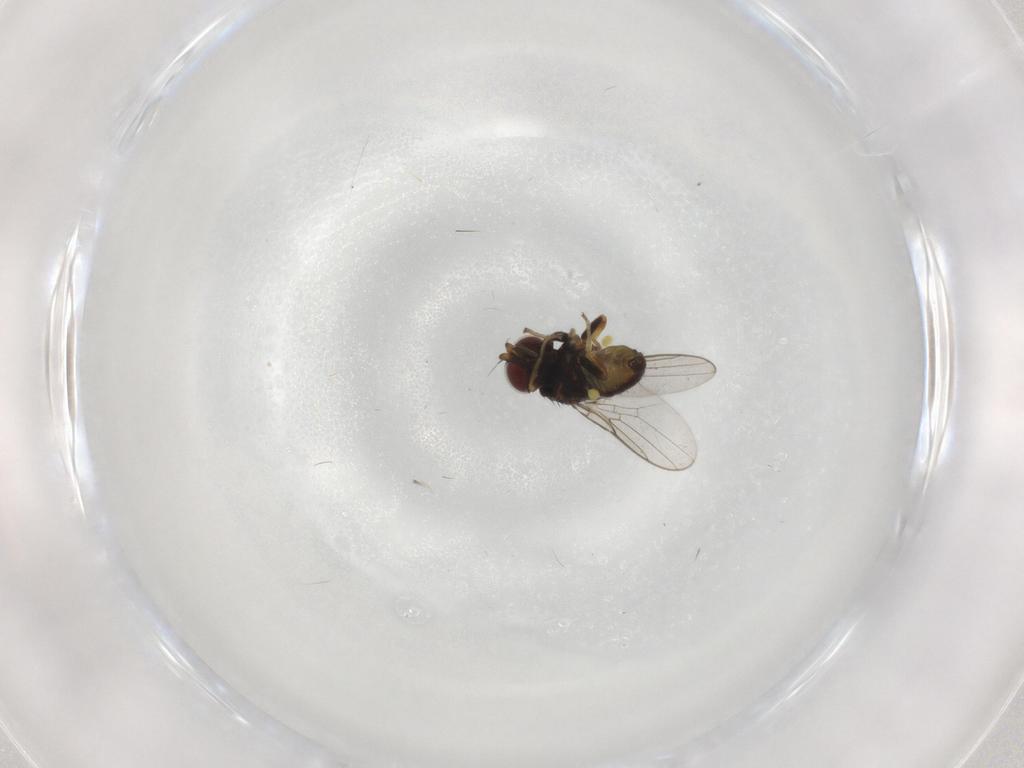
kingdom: Animalia
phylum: Arthropoda
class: Insecta
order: Diptera
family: Chloropidae
